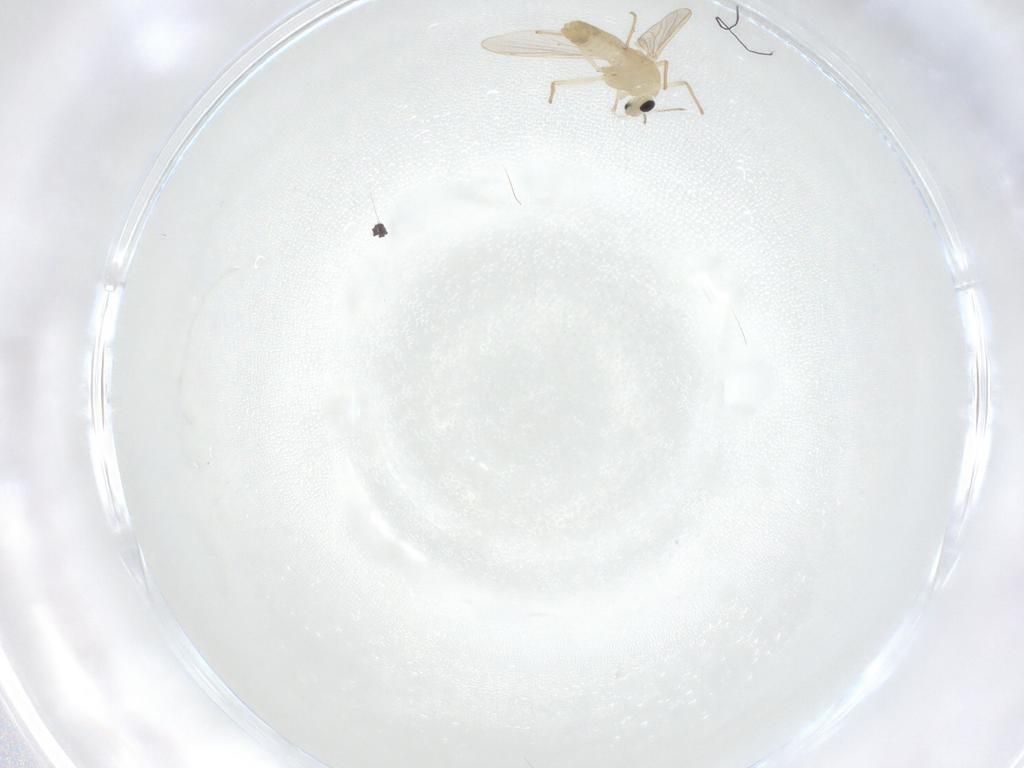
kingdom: Animalia
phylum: Arthropoda
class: Insecta
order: Diptera
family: Chironomidae
